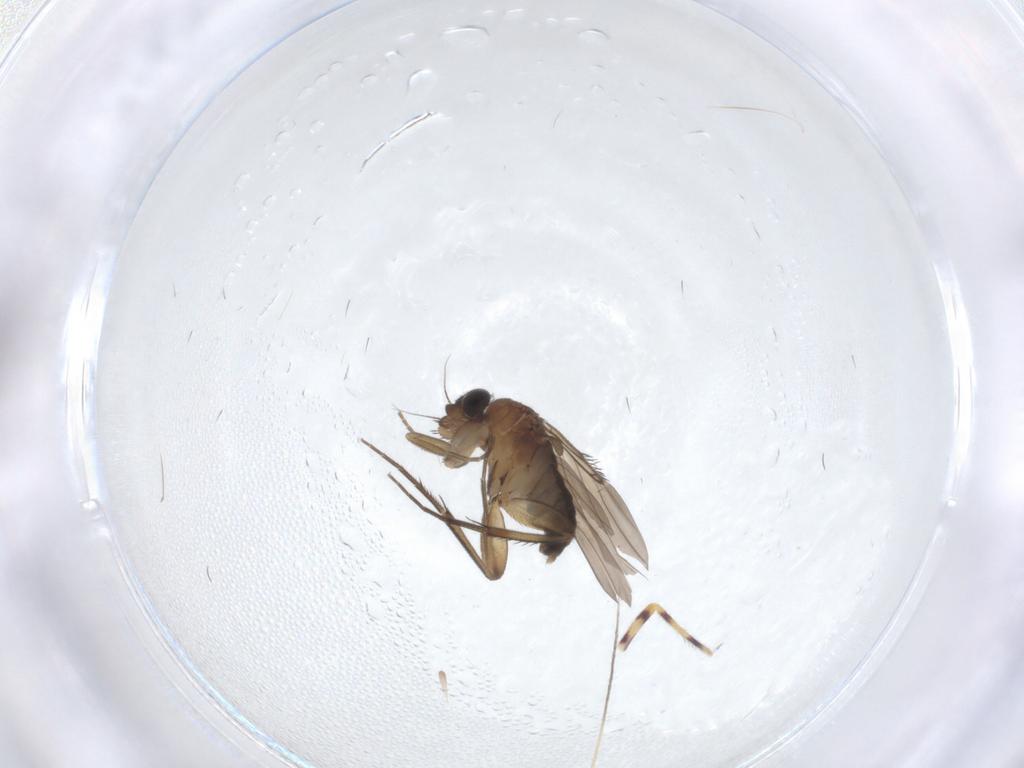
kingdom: Animalia
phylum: Arthropoda
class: Insecta
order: Diptera
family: Phoridae
